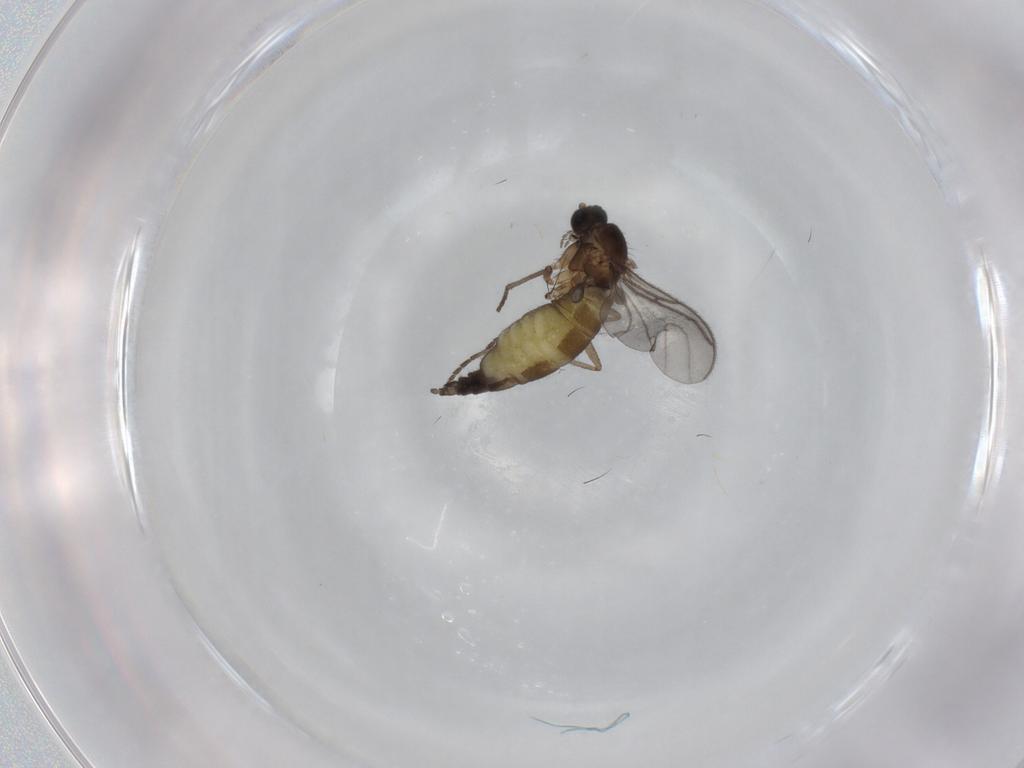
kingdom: Animalia
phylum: Arthropoda
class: Insecta
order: Diptera
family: Sciaridae
